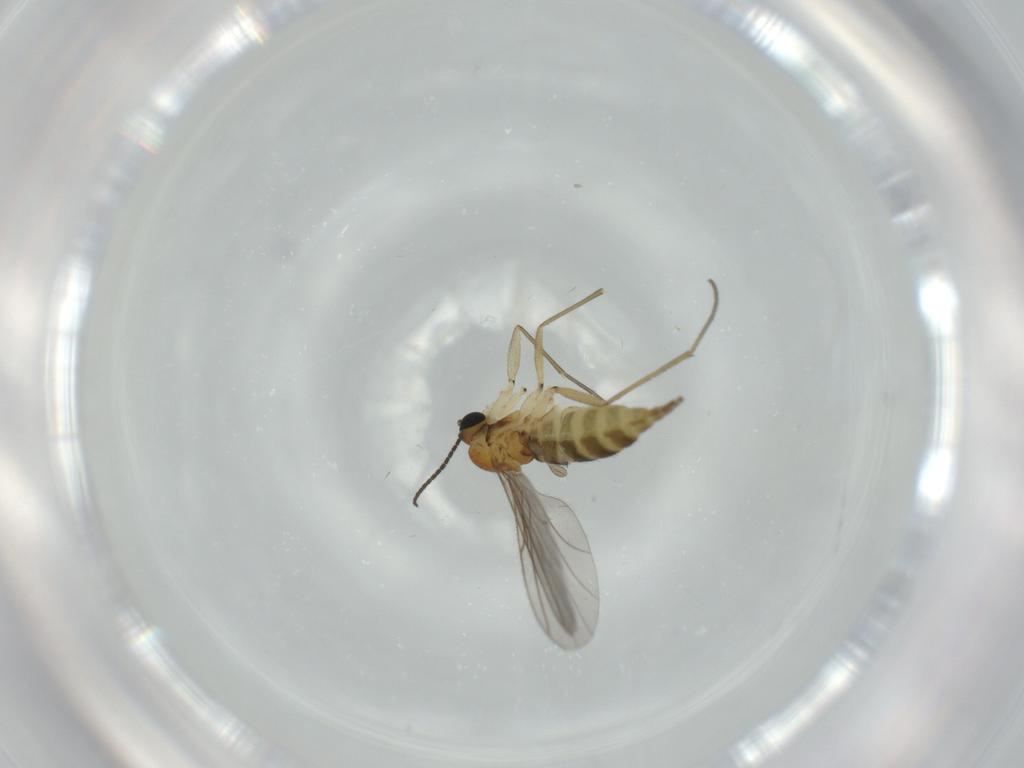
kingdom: Animalia
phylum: Arthropoda
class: Insecta
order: Diptera
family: Sciaridae
